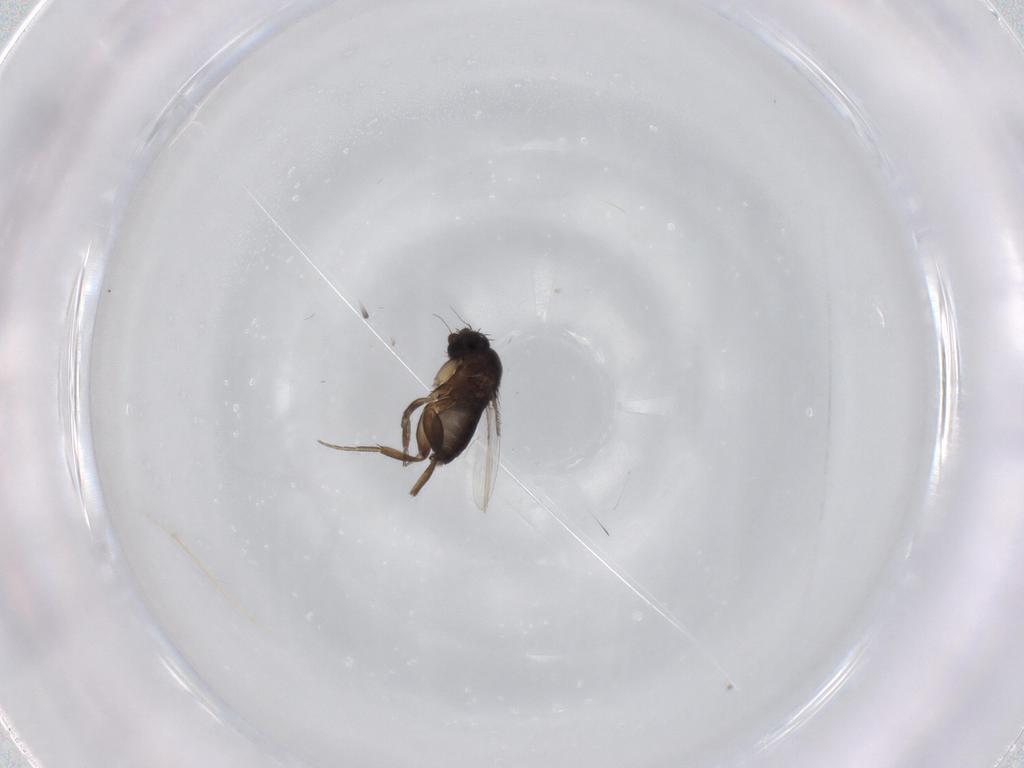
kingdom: Animalia
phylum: Arthropoda
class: Insecta
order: Diptera
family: Phoridae
